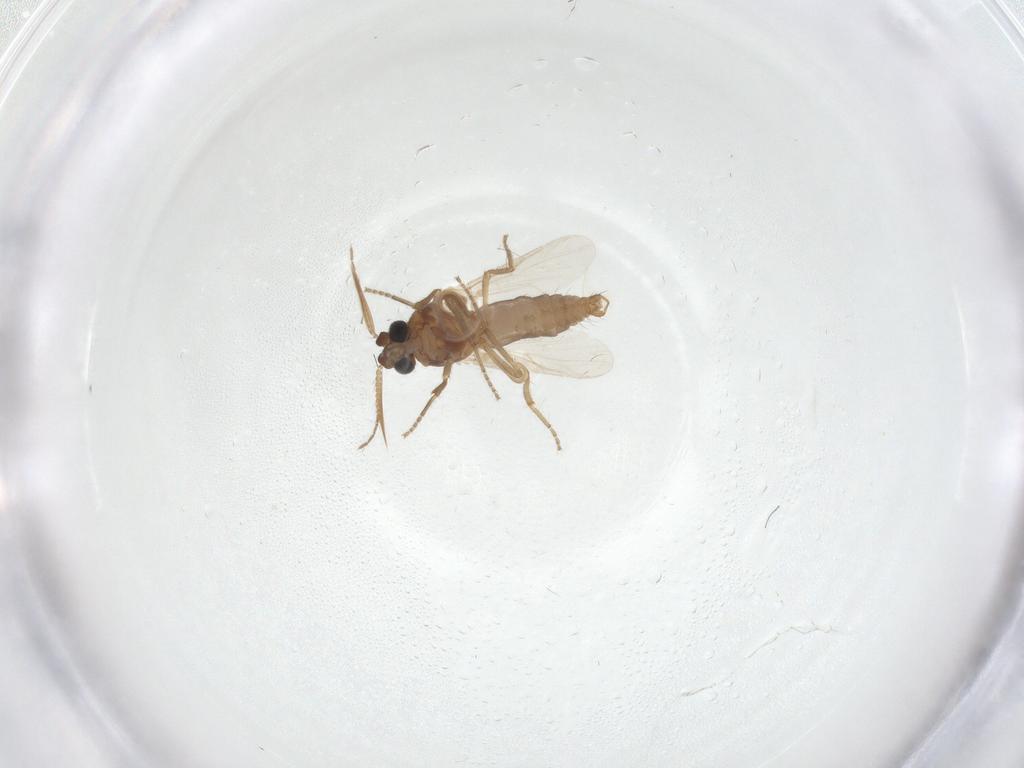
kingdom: Animalia
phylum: Arthropoda
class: Insecta
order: Diptera
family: Ceratopogonidae
